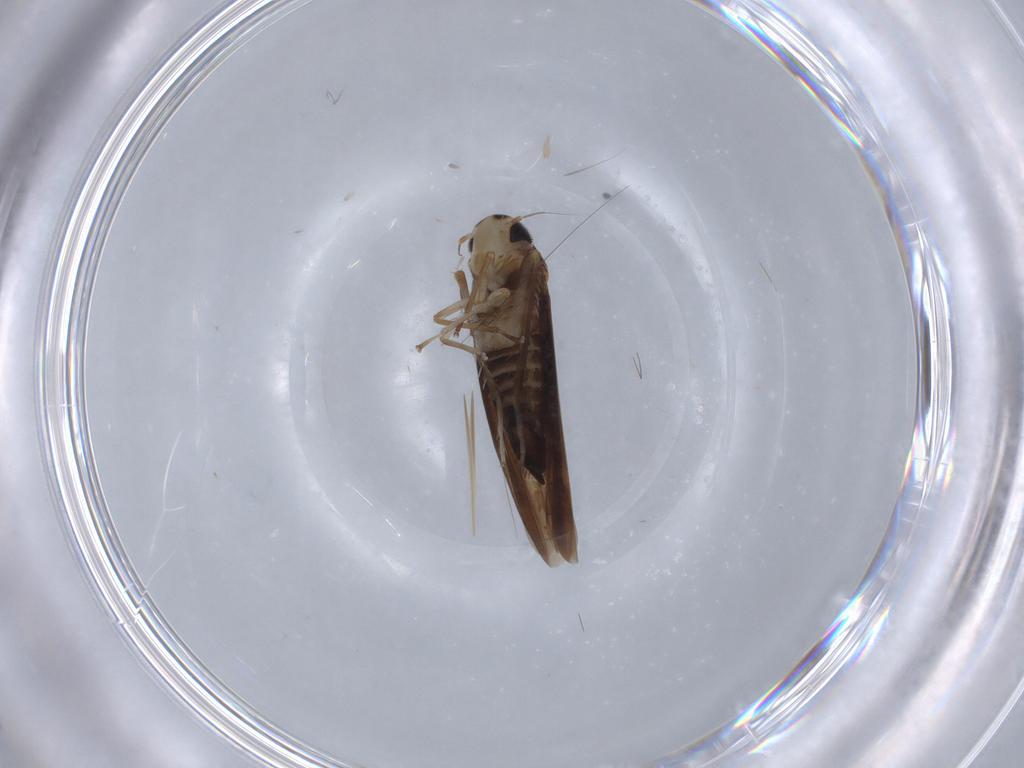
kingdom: Animalia
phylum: Arthropoda
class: Insecta
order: Hemiptera
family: Cicadellidae
